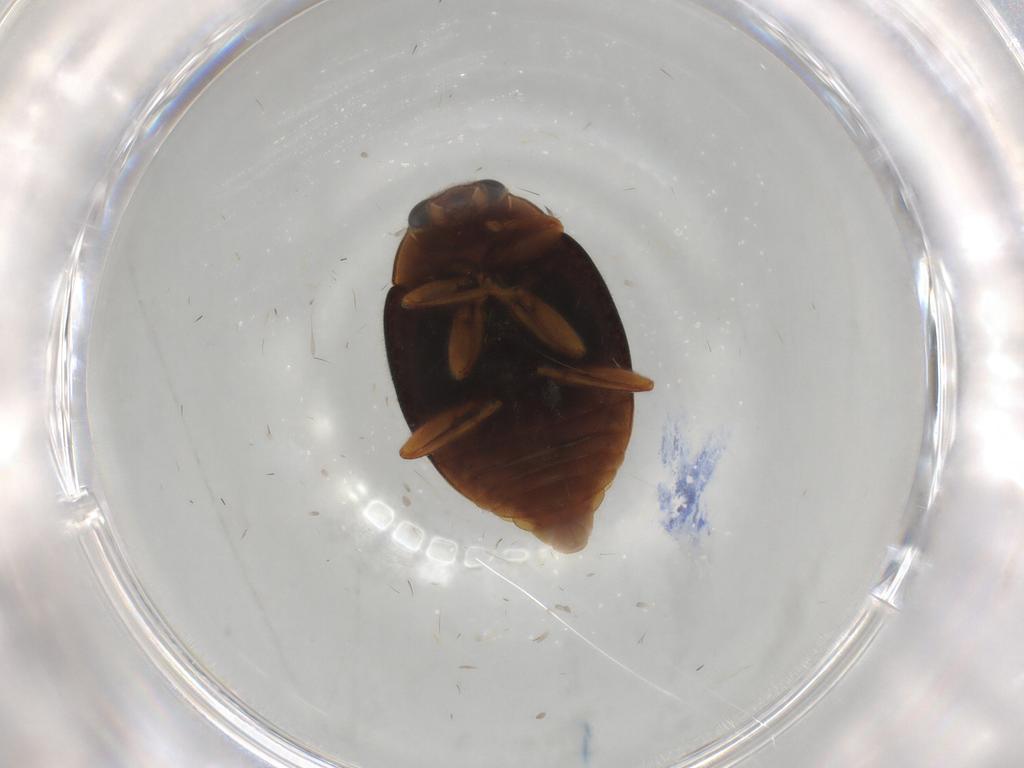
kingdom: Animalia
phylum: Arthropoda
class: Insecta
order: Coleoptera
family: Coccinellidae
